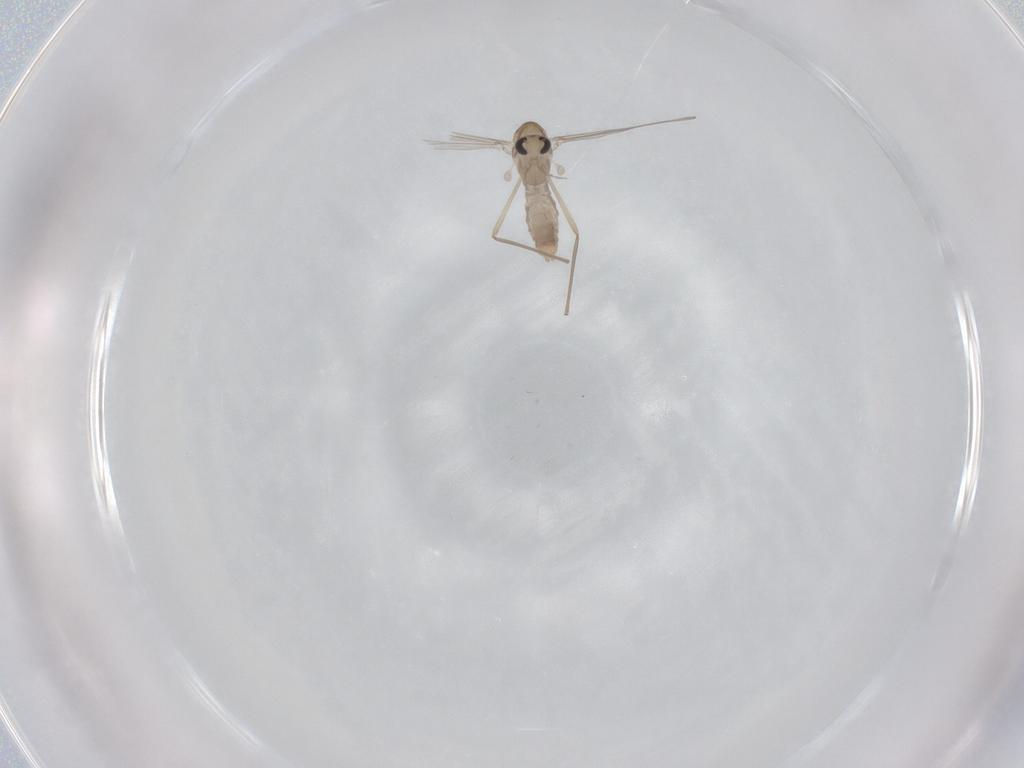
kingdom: Animalia
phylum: Arthropoda
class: Insecta
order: Diptera
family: Chironomidae
